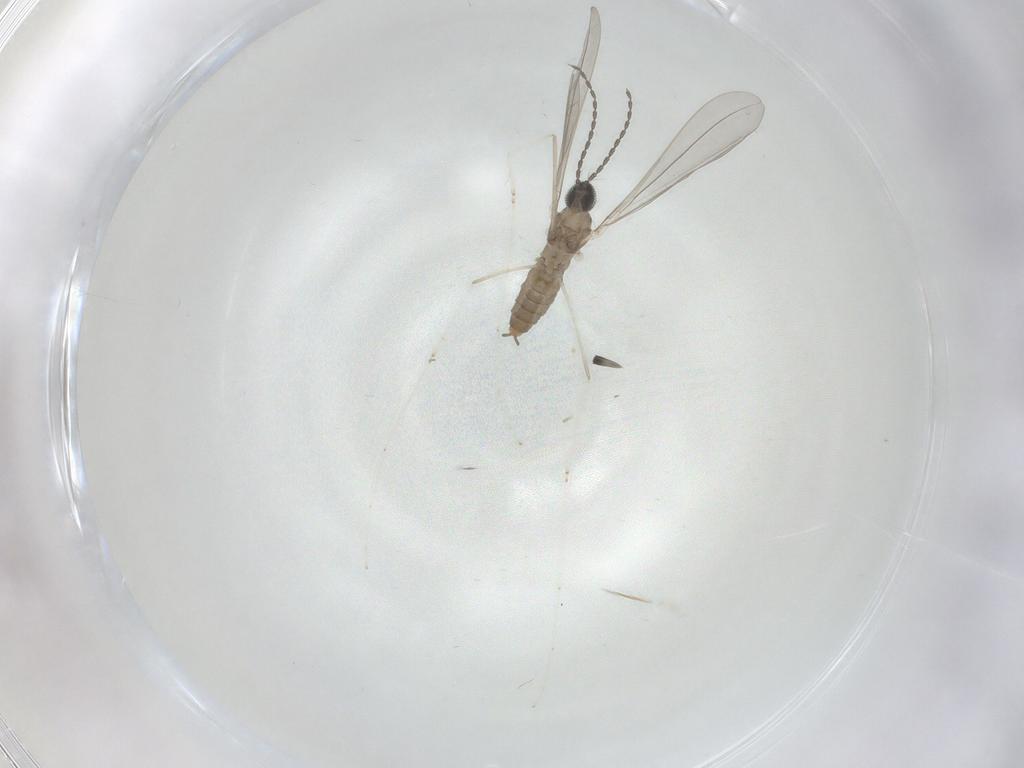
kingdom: Animalia
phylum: Arthropoda
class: Insecta
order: Diptera
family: Cecidomyiidae
